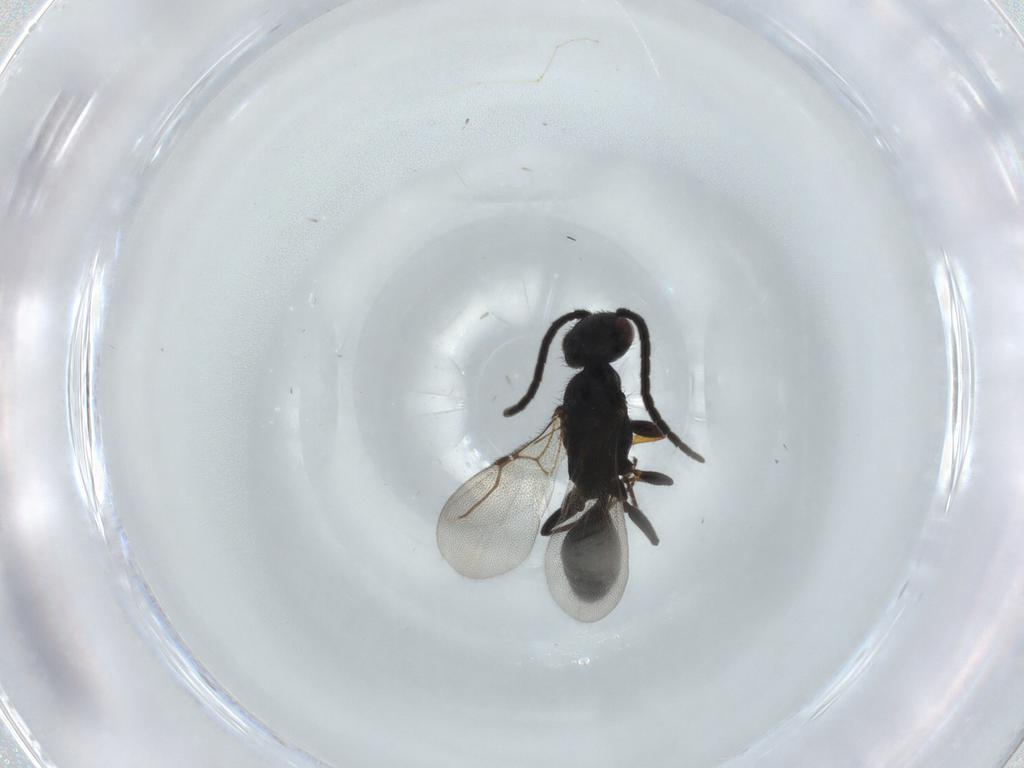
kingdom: Animalia
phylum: Arthropoda
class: Insecta
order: Hymenoptera
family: Bethylidae
